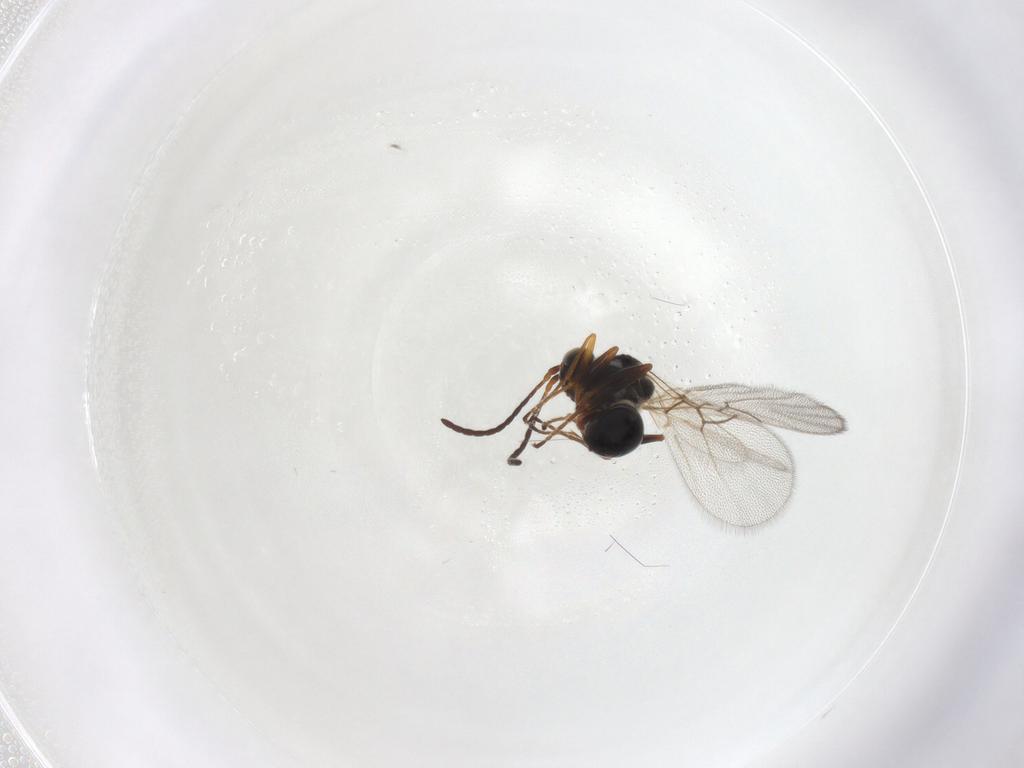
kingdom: Animalia
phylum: Arthropoda
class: Insecta
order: Hymenoptera
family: Figitidae
